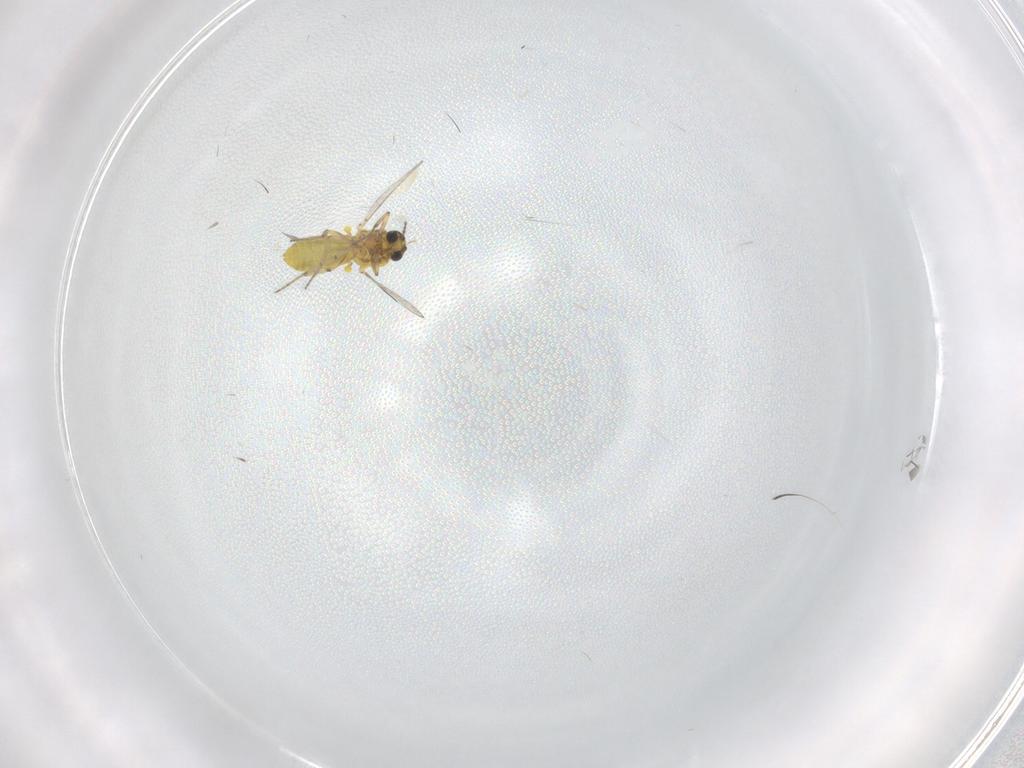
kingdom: Animalia
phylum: Arthropoda
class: Insecta
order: Diptera
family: Ceratopogonidae
